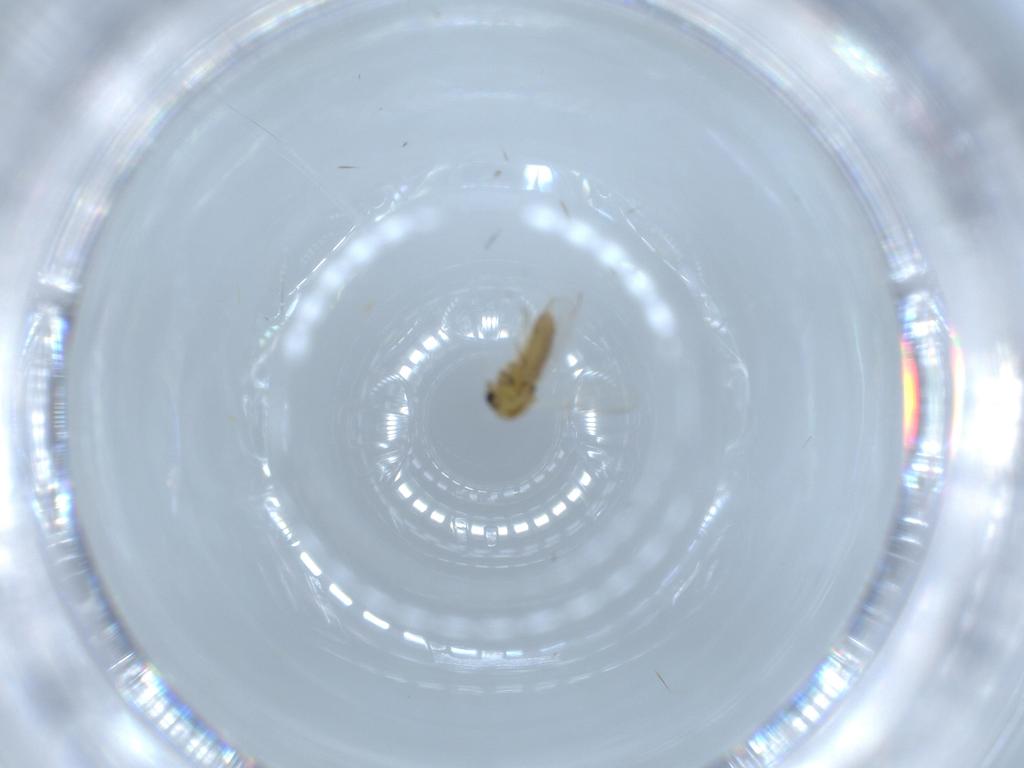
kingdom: Animalia
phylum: Arthropoda
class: Insecta
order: Diptera
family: Chironomidae
